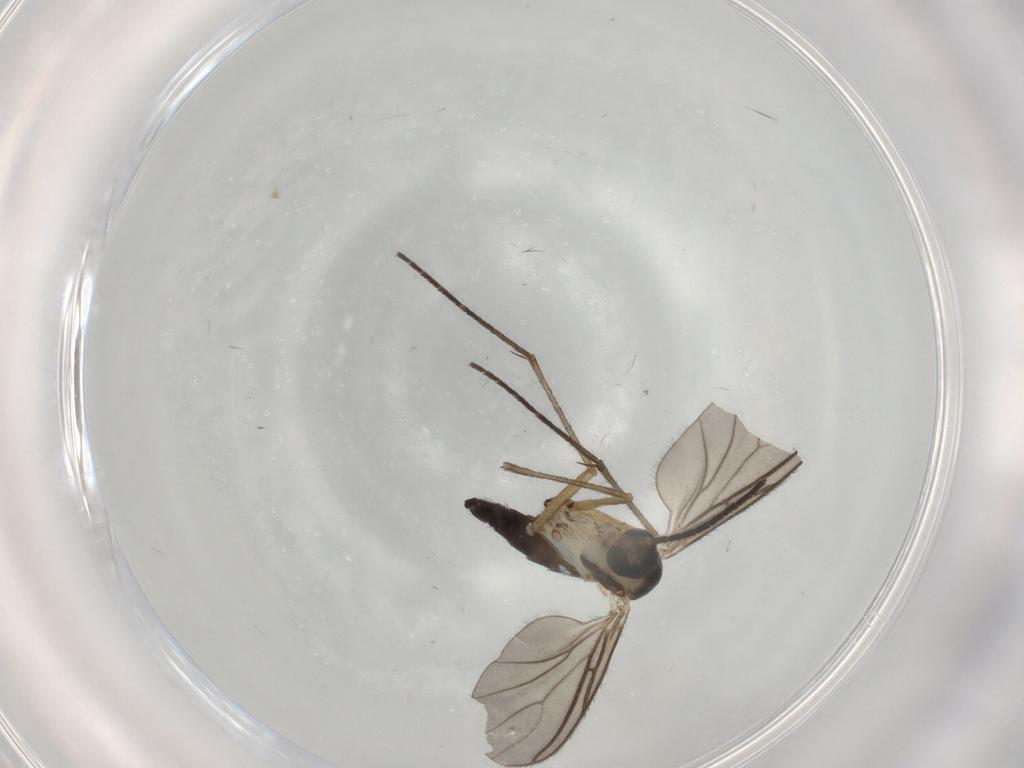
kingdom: Animalia
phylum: Arthropoda
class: Insecta
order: Diptera
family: Sciaridae
